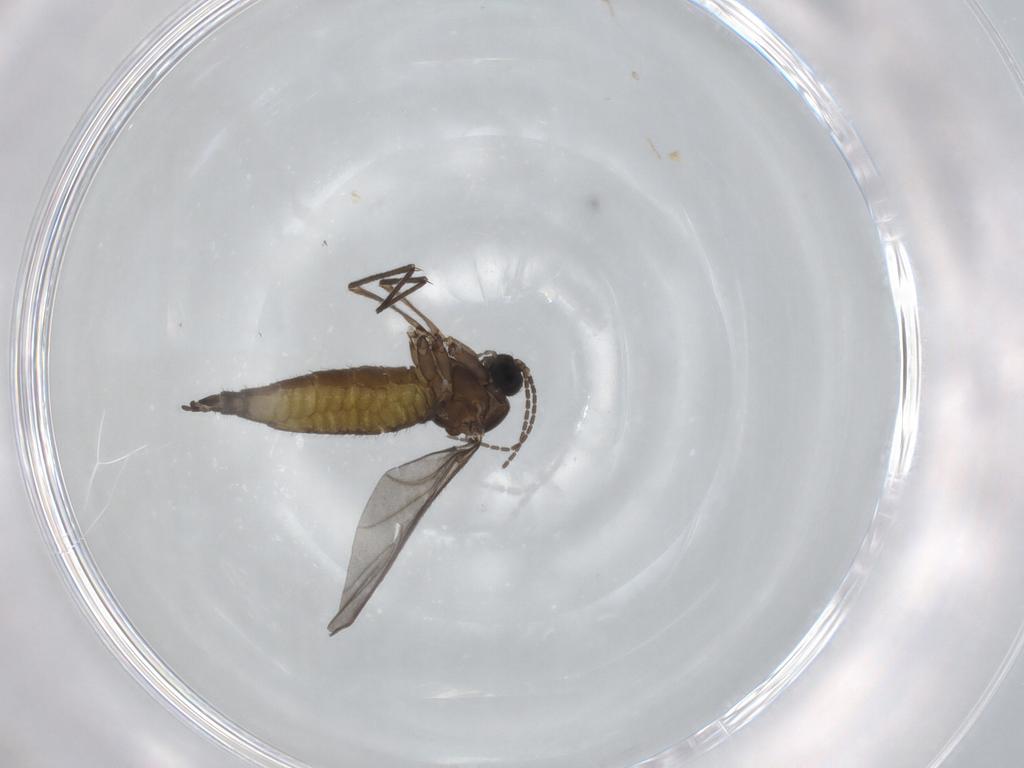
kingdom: Animalia
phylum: Arthropoda
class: Insecta
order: Diptera
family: Sciaridae
